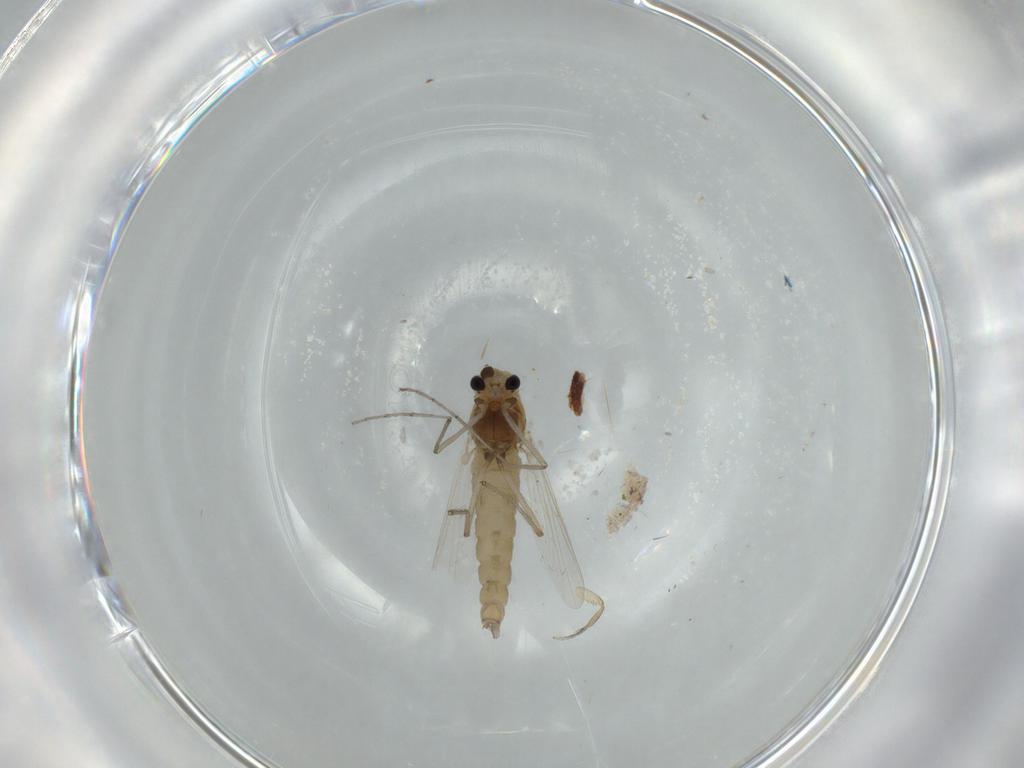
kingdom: Animalia
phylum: Arthropoda
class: Insecta
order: Diptera
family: Chironomidae
